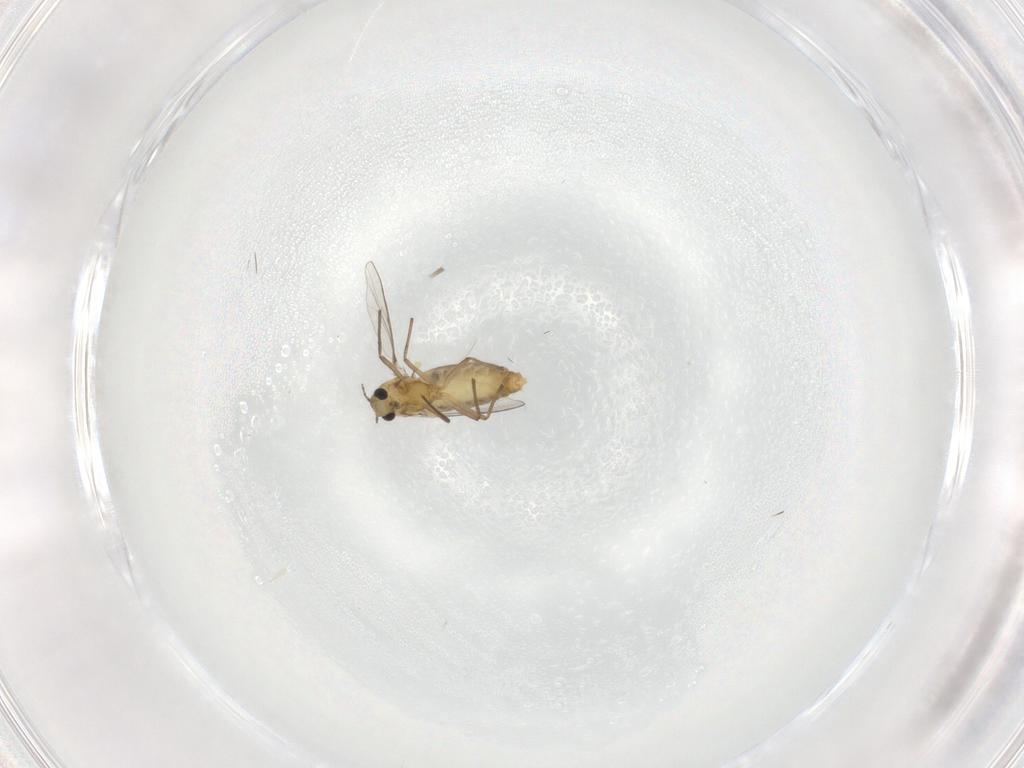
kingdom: Animalia
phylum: Arthropoda
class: Insecta
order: Diptera
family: Chironomidae
